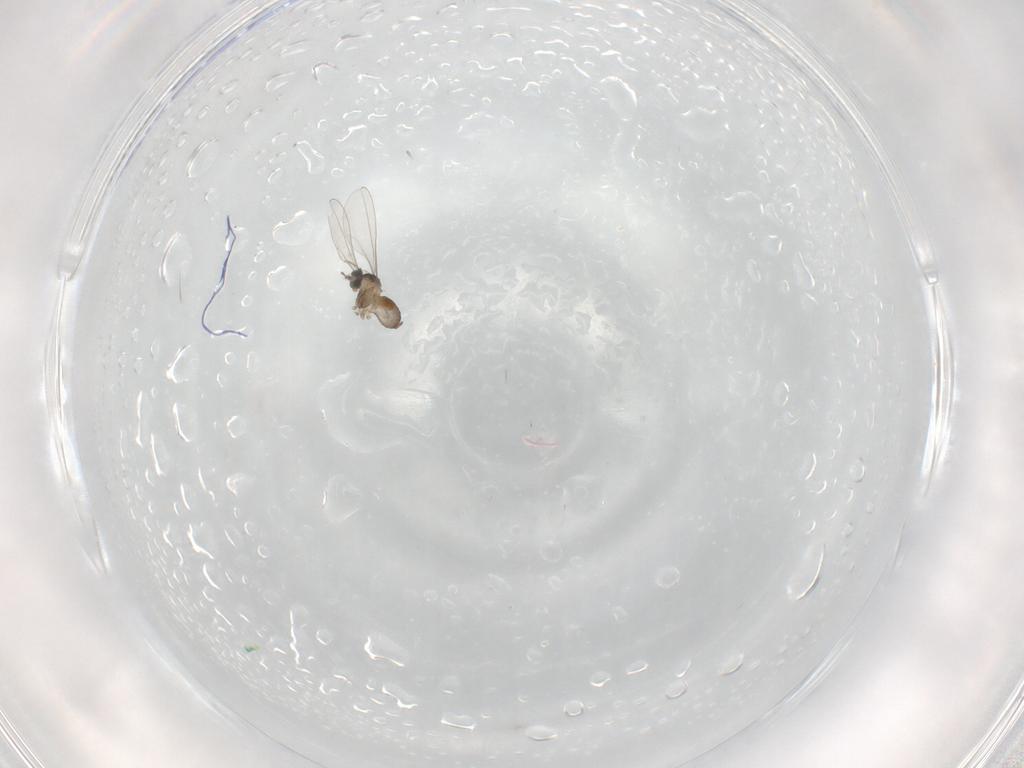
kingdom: Animalia
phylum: Arthropoda
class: Insecta
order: Diptera
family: Cecidomyiidae
